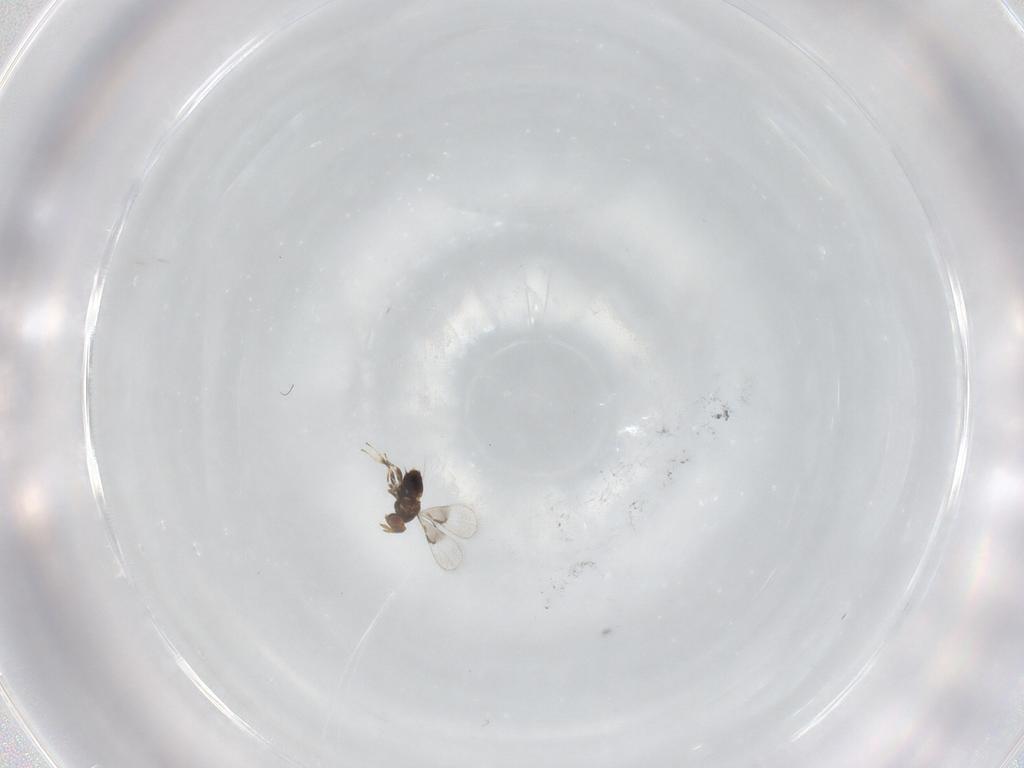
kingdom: Animalia
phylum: Arthropoda
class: Insecta
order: Hymenoptera
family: Trichogrammatidae
